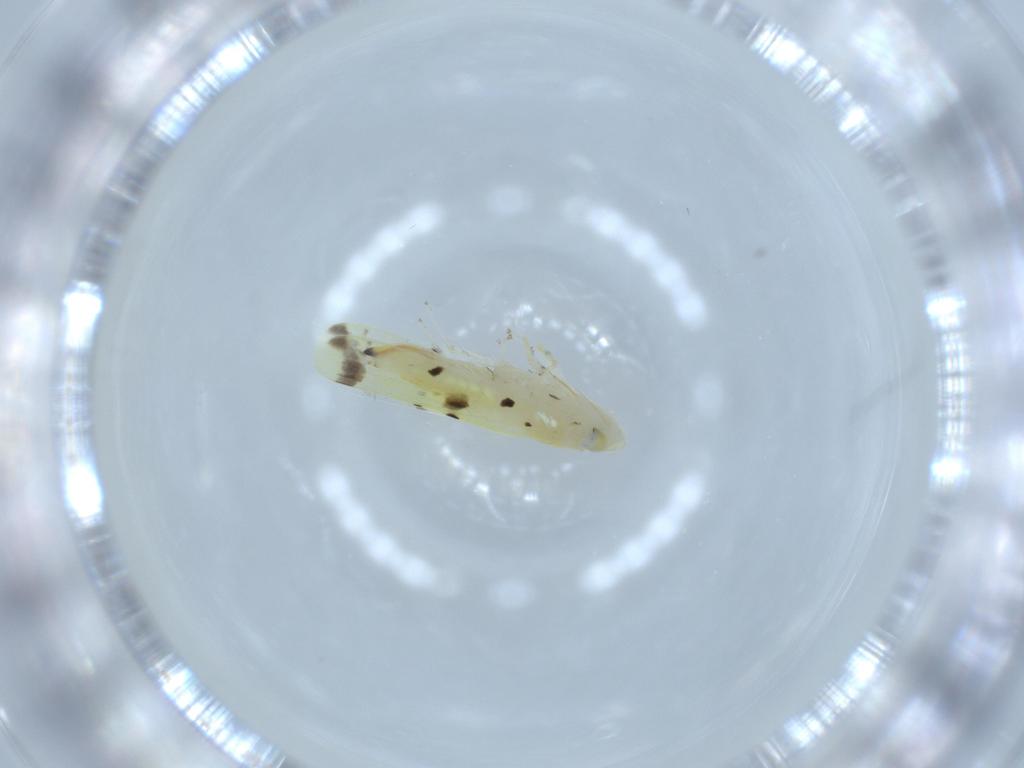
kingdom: Animalia
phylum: Arthropoda
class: Insecta
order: Hemiptera
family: Cicadellidae
